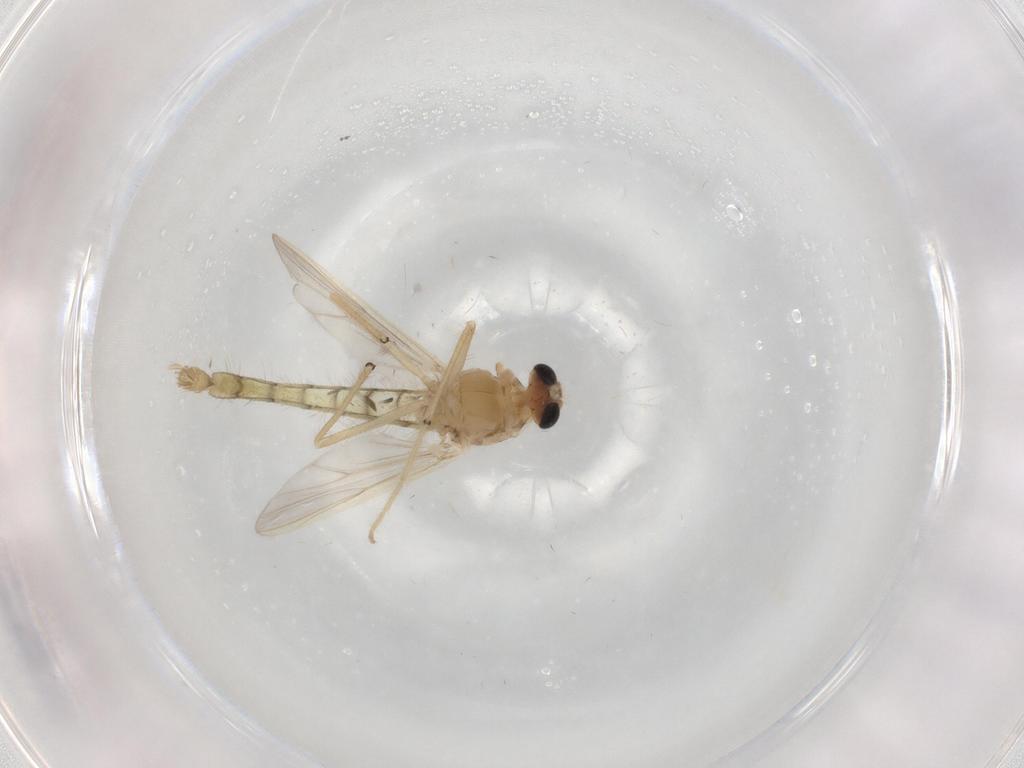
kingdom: Animalia
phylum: Arthropoda
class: Insecta
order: Diptera
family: Chironomidae
